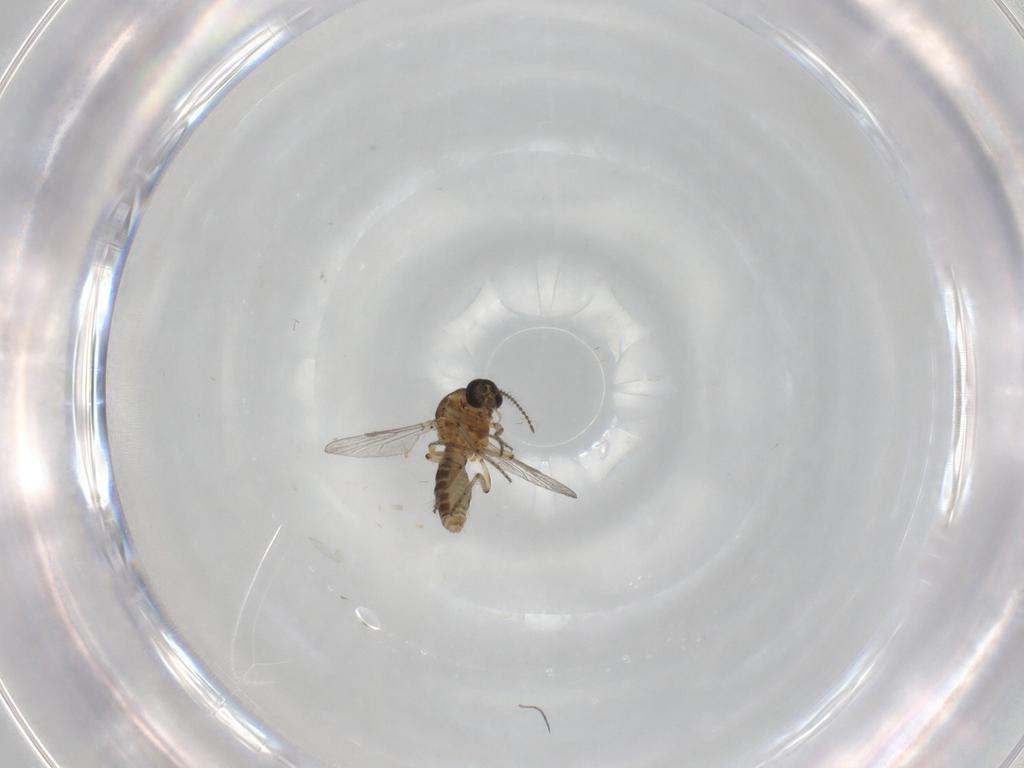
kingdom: Animalia
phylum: Arthropoda
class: Insecta
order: Diptera
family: Ceratopogonidae
